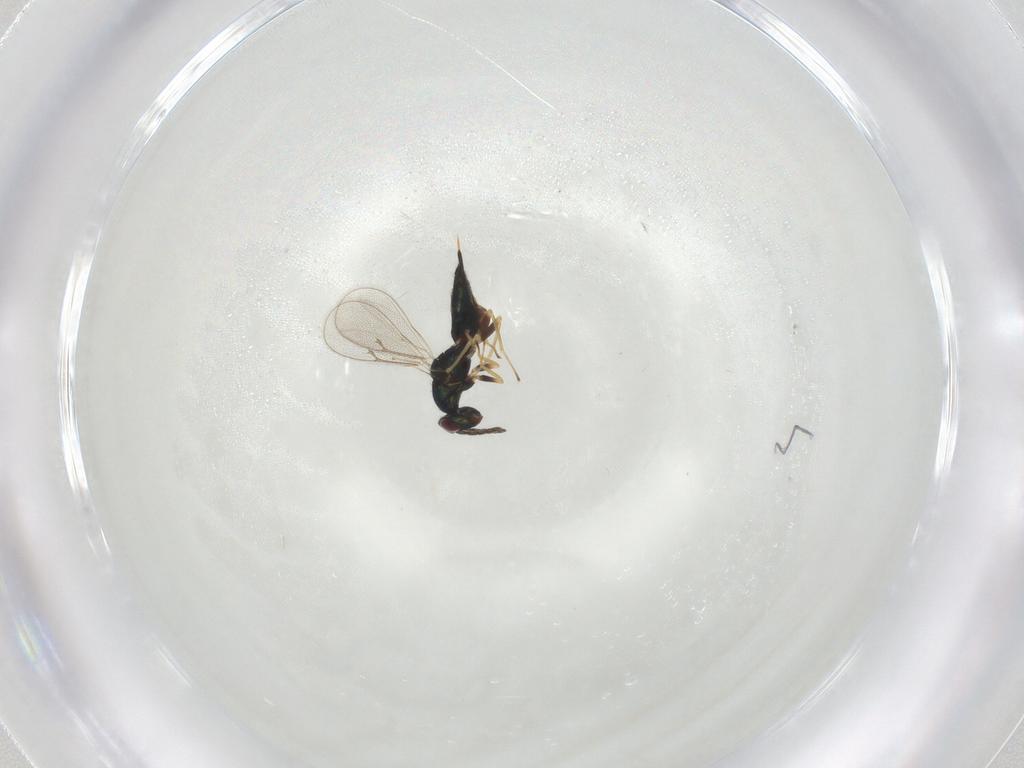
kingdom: Animalia
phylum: Arthropoda
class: Insecta
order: Hymenoptera
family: Eulophidae
